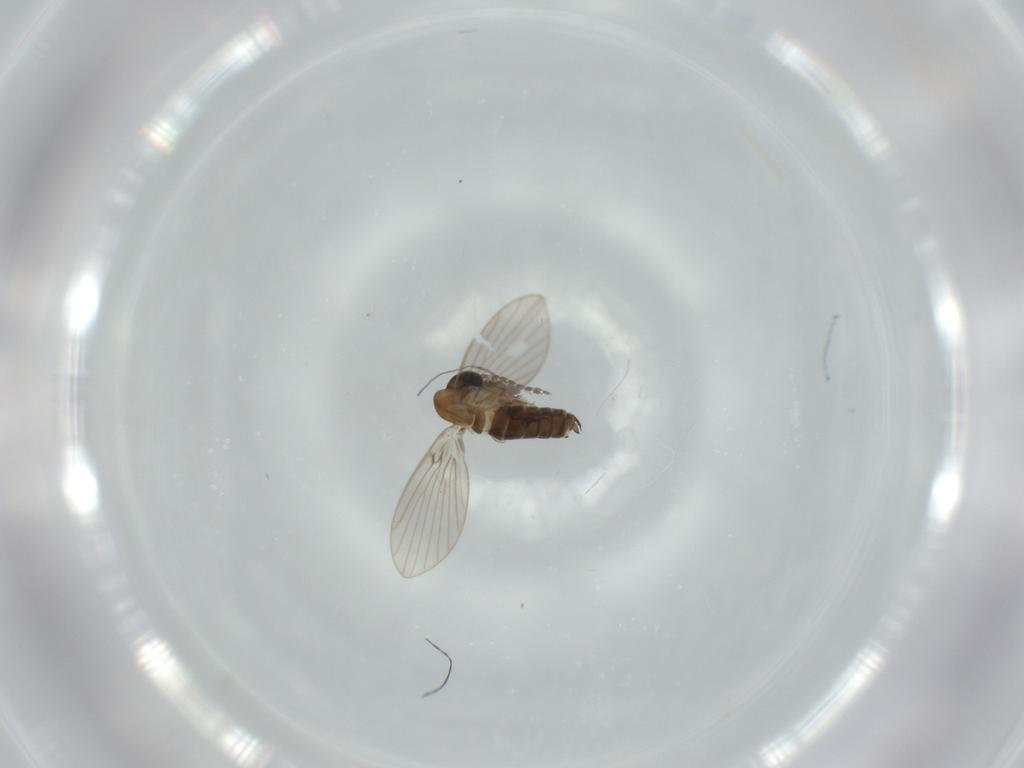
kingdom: Animalia
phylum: Arthropoda
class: Insecta
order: Diptera
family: Psychodidae
